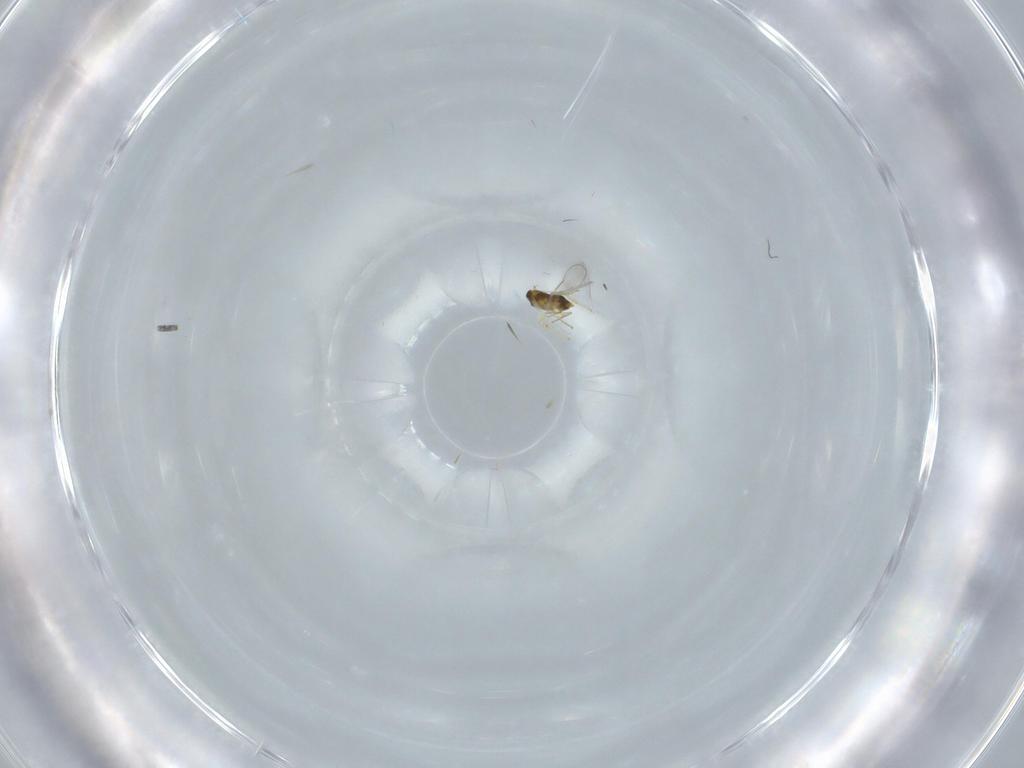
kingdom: Animalia
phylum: Arthropoda
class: Insecta
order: Hymenoptera
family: Aphelinidae
